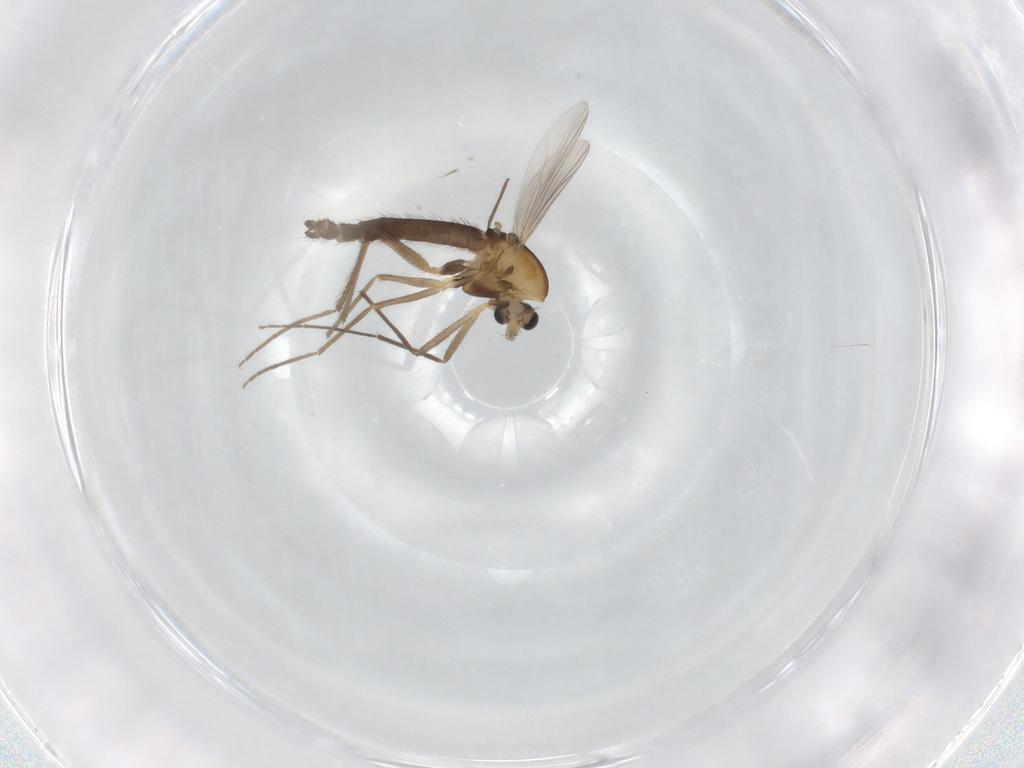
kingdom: Animalia
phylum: Arthropoda
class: Insecta
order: Diptera
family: Chironomidae
